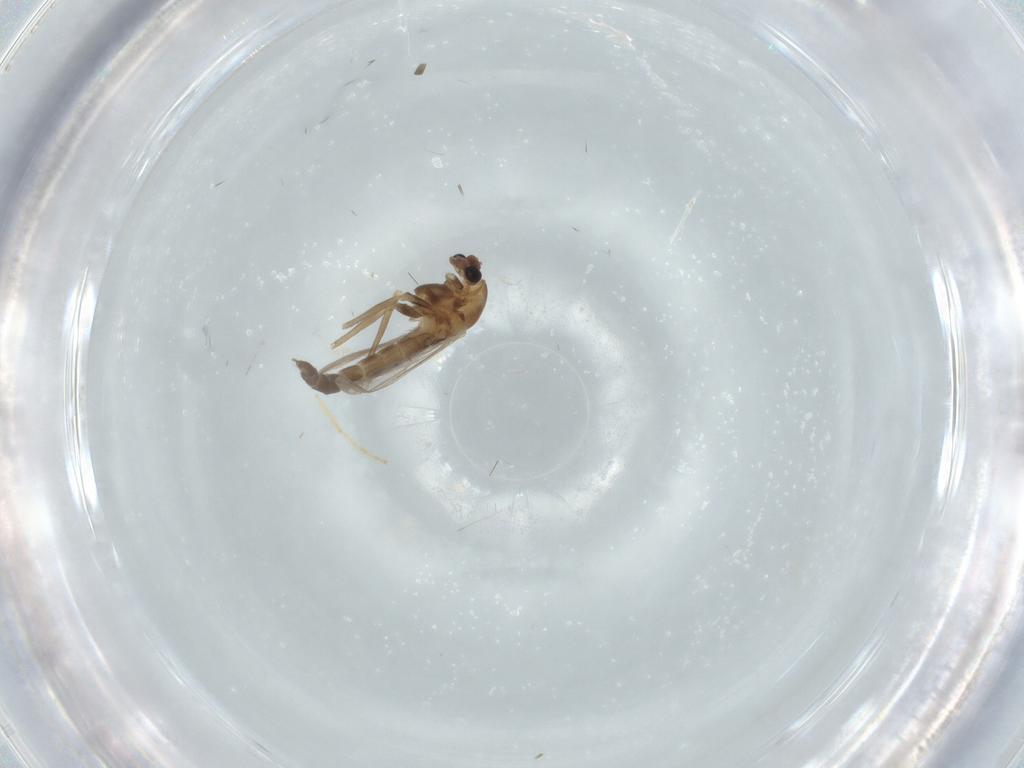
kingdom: Animalia
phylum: Arthropoda
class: Insecta
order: Diptera
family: Chironomidae
